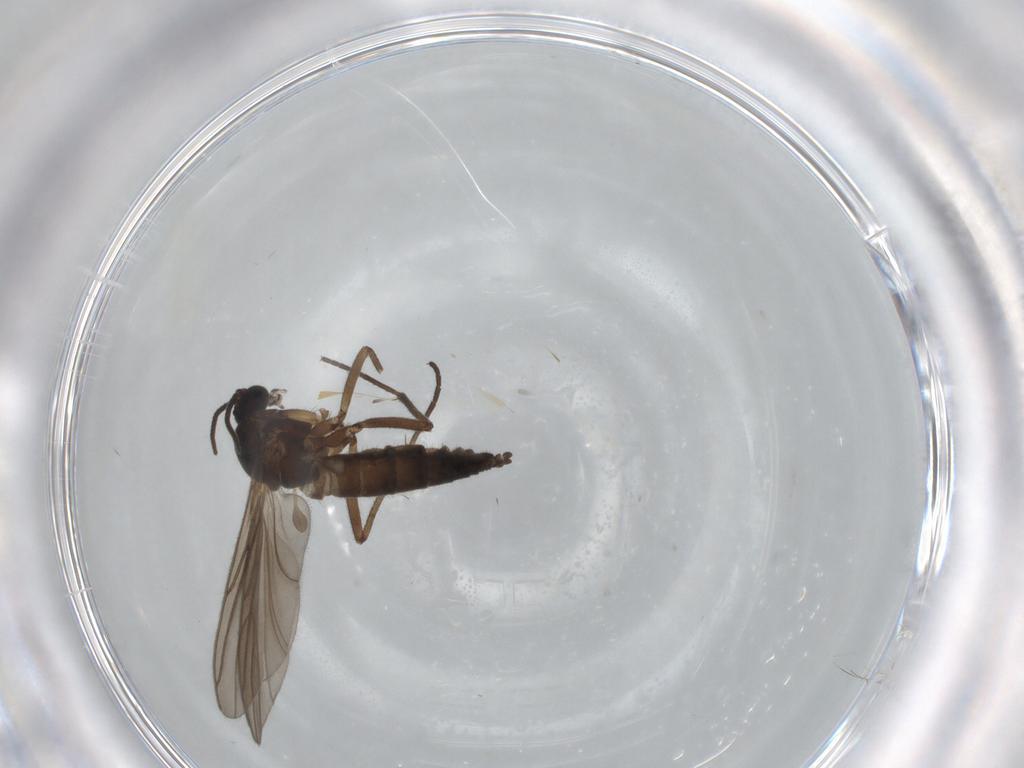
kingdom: Animalia
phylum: Arthropoda
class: Insecta
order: Diptera
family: Sciaridae
